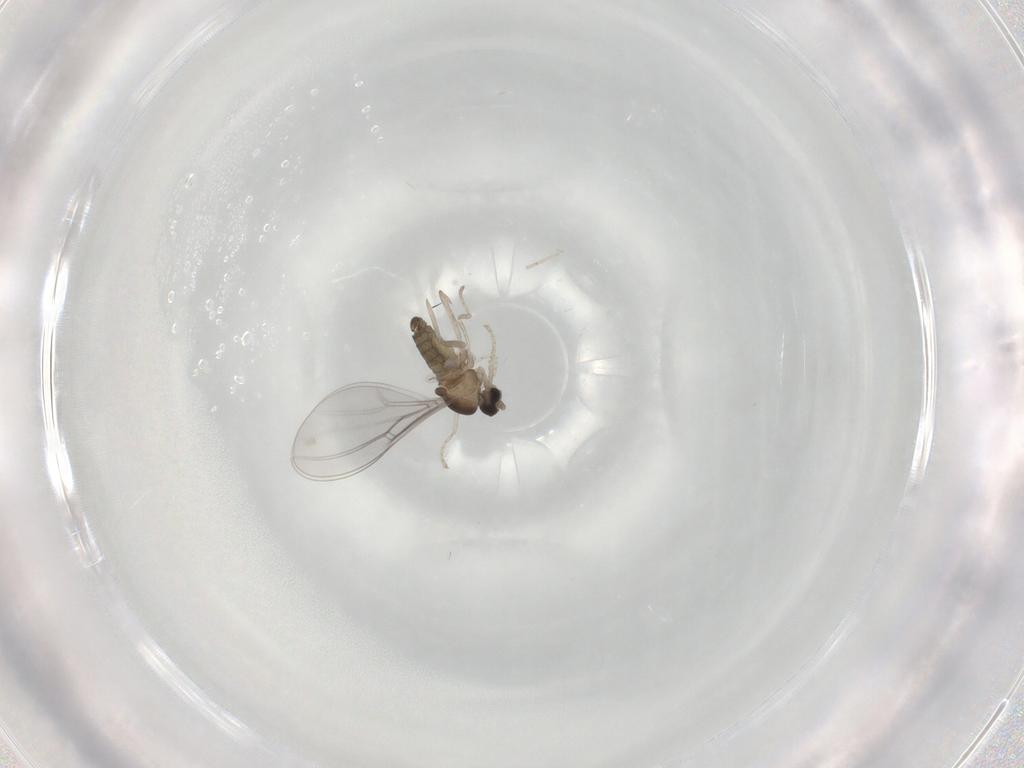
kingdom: Animalia
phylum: Arthropoda
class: Insecta
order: Diptera
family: Cecidomyiidae
